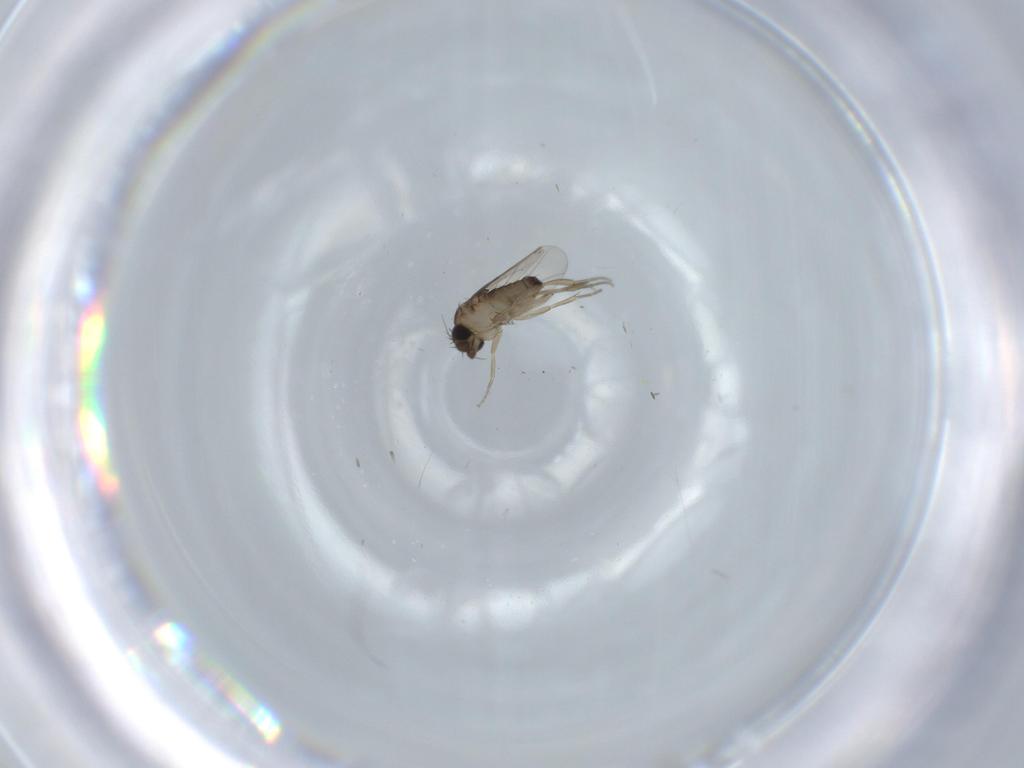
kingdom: Animalia
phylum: Arthropoda
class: Insecta
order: Diptera
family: Phoridae
